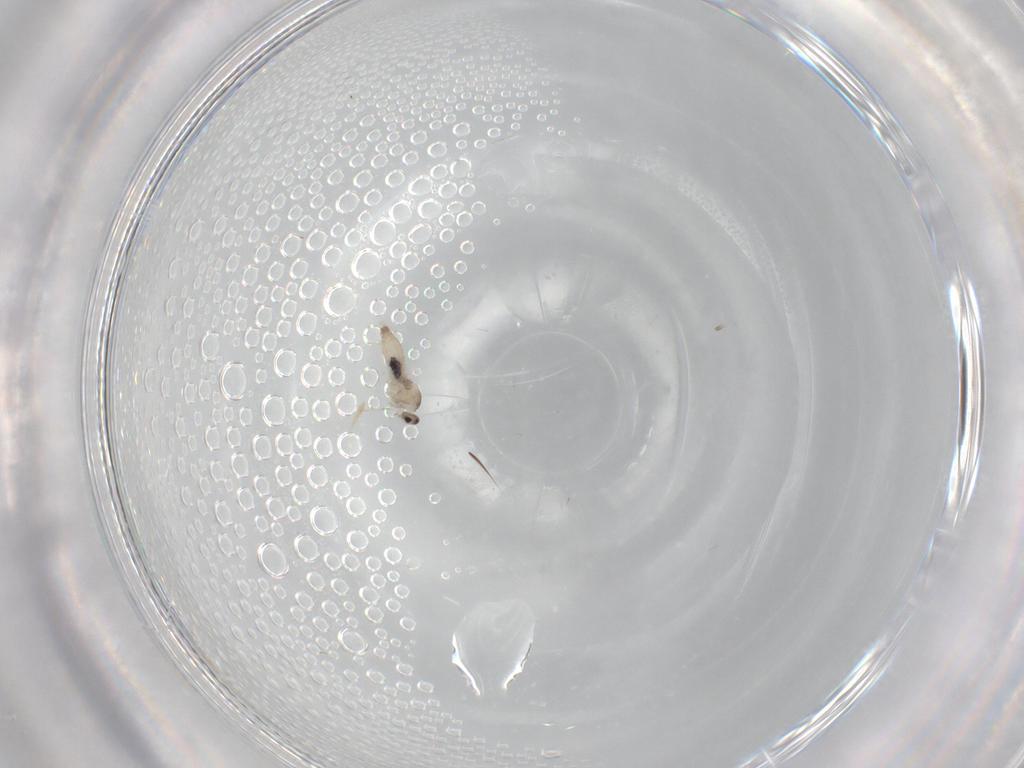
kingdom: Animalia
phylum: Arthropoda
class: Insecta
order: Diptera
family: Cecidomyiidae
